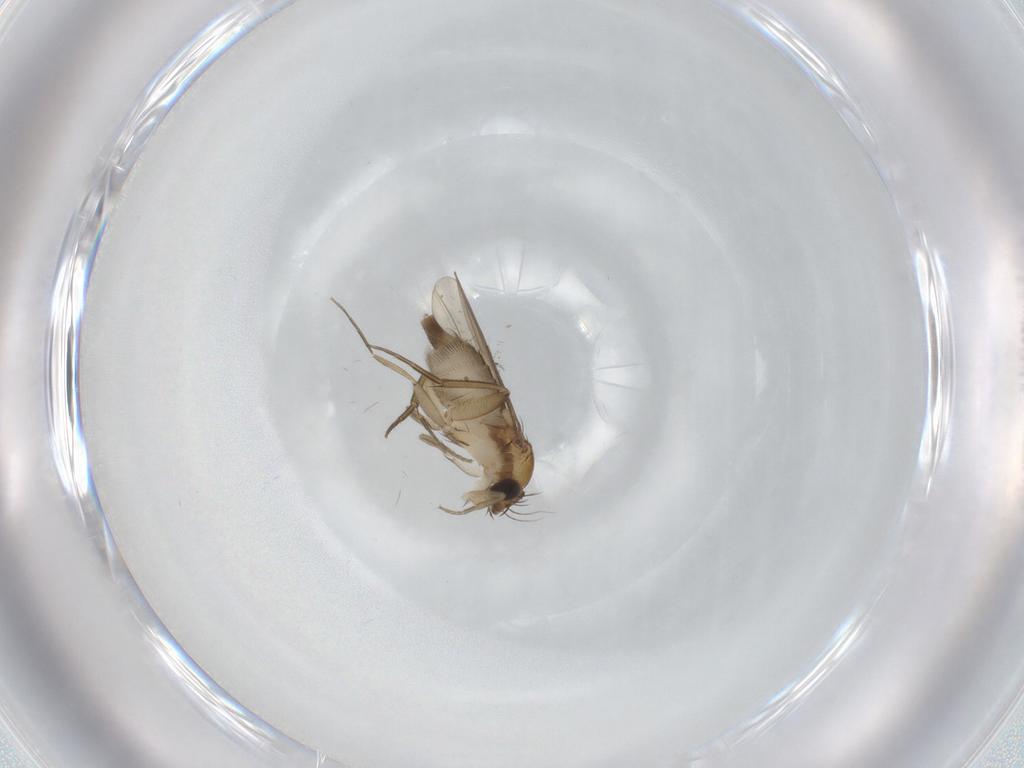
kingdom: Animalia
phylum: Arthropoda
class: Insecta
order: Diptera
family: Phoridae
